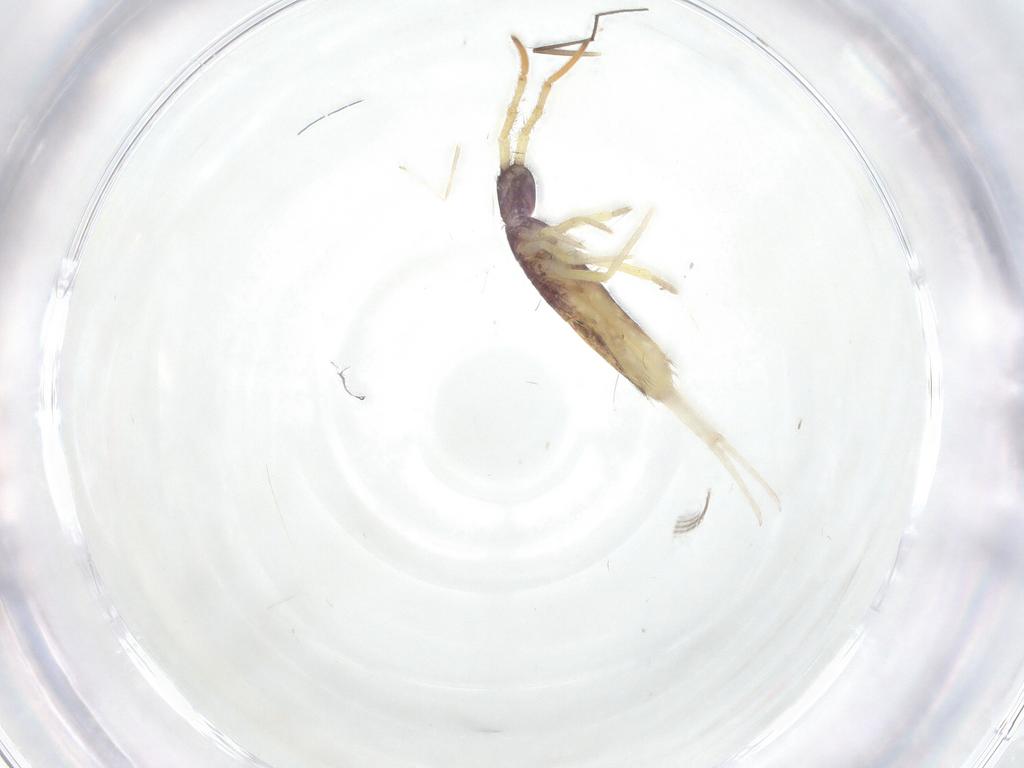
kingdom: Animalia
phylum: Arthropoda
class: Collembola
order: Entomobryomorpha
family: Entomobryidae
